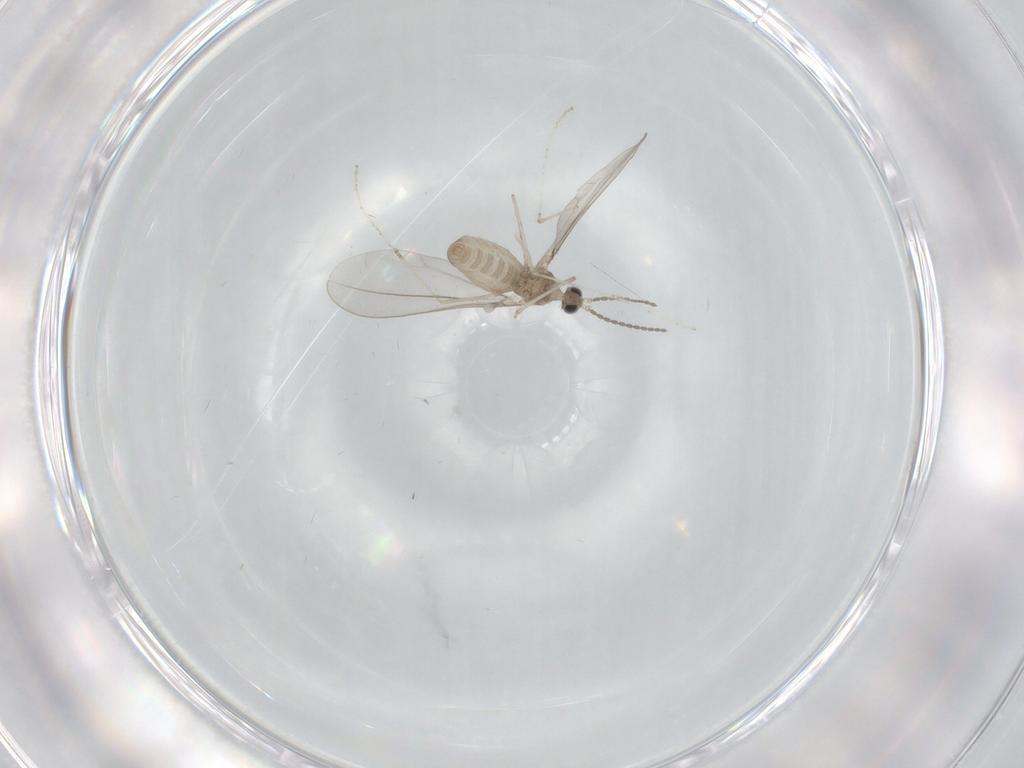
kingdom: Animalia
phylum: Arthropoda
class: Insecta
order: Diptera
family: Cecidomyiidae
